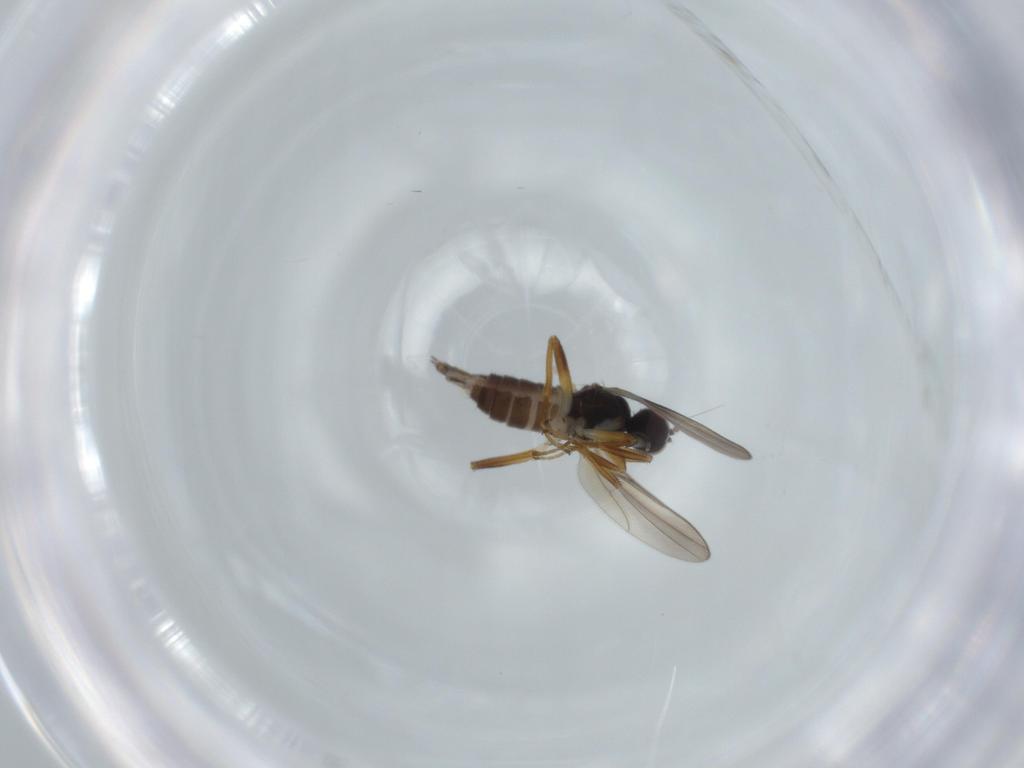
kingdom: Animalia
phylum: Arthropoda
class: Insecta
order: Diptera
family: Hybotidae
